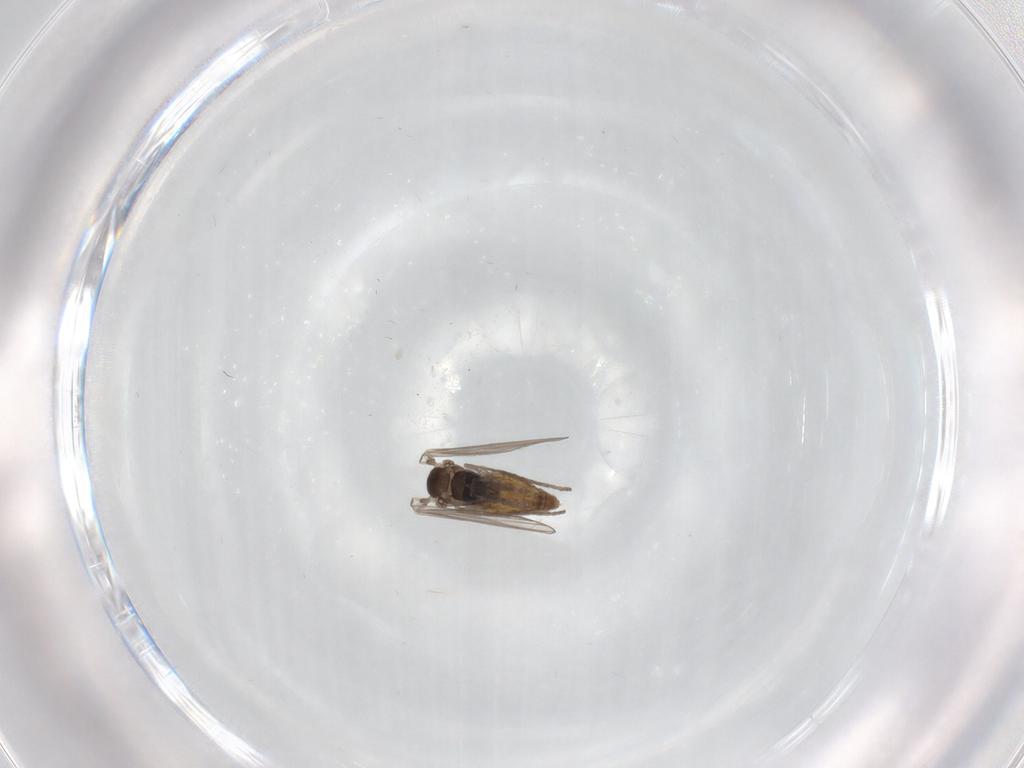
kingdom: Animalia
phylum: Arthropoda
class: Insecta
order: Diptera
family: Psychodidae
